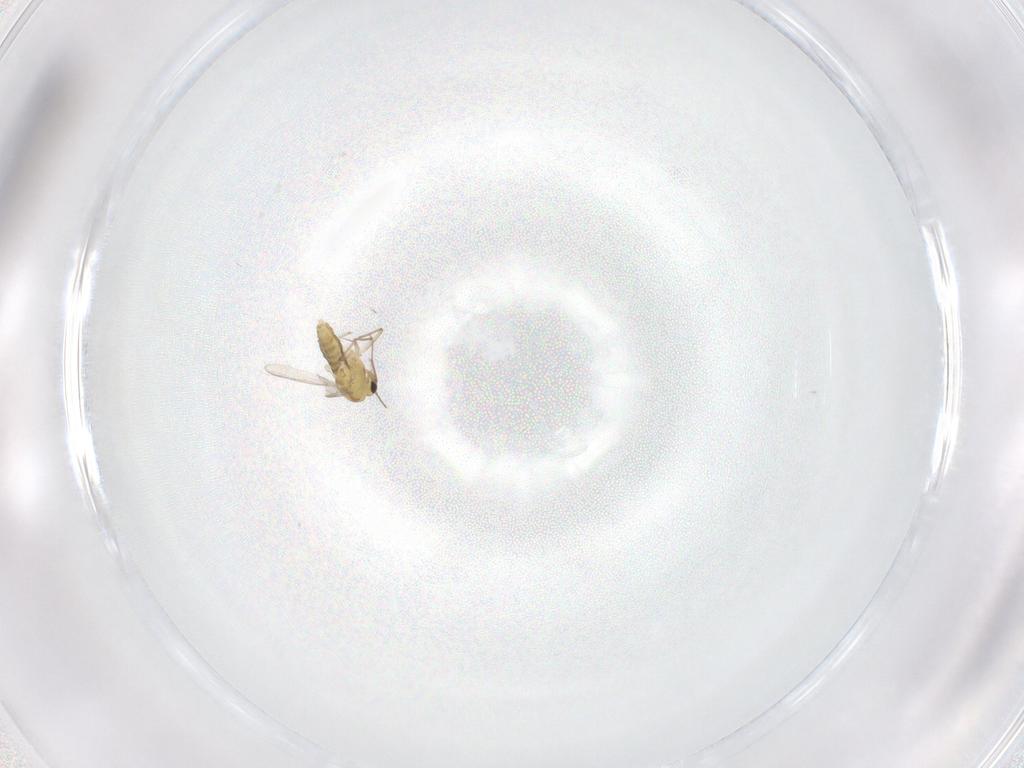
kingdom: Animalia
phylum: Arthropoda
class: Insecta
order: Diptera
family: Chironomidae
